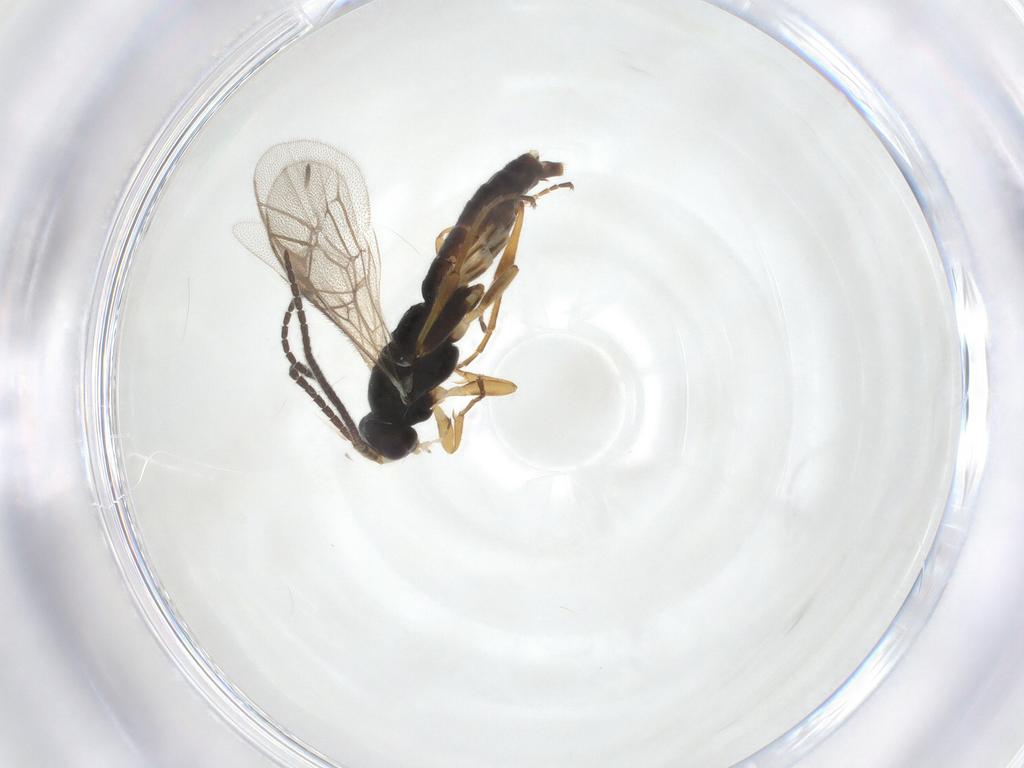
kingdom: Animalia
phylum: Arthropoda
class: Insecta
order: Hymenoptera
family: Ichneumonidae
